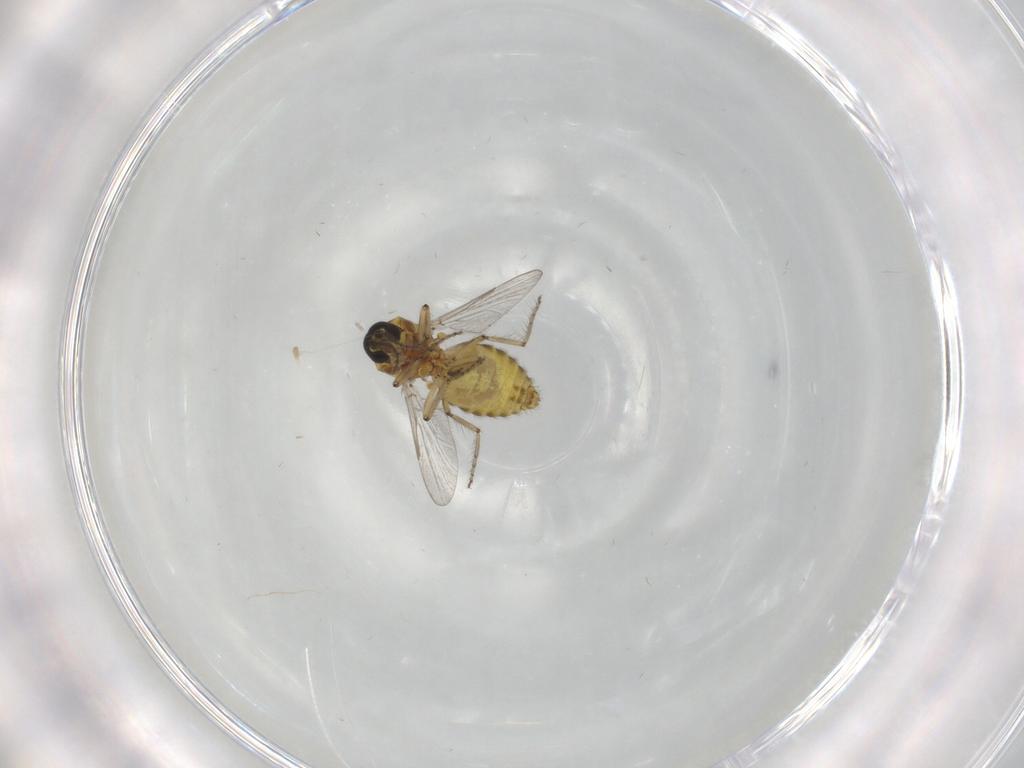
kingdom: Animalia
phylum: Arthropoda
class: Insecta
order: Diptera
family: Ceratopogonidae
